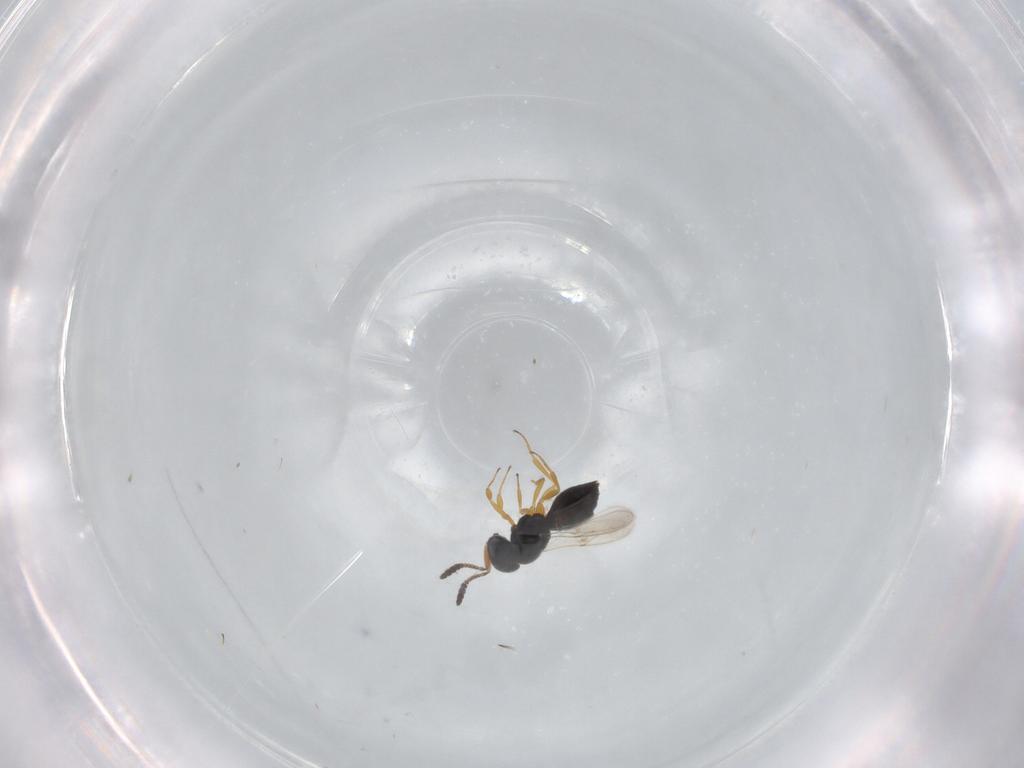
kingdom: Animalia
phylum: Arthropoda
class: Insecta
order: Hymenoptera
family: Scelionidae
